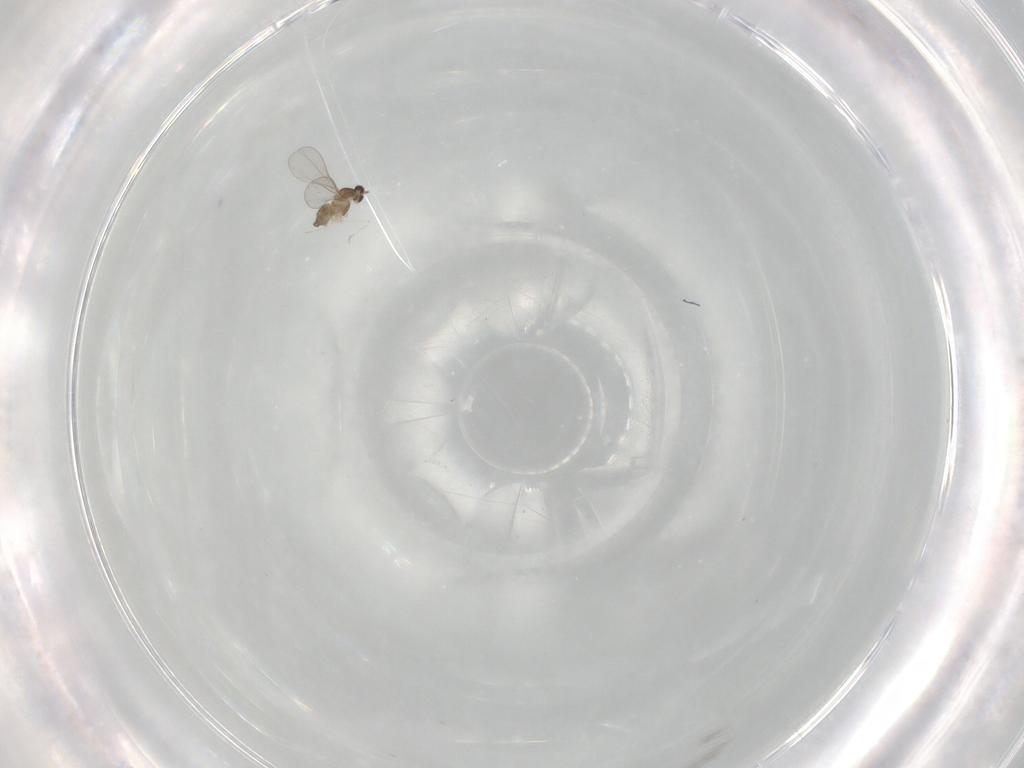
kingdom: Animalia
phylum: Arthropoda
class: Insecta
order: Diptera
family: Cecidomyiidae
